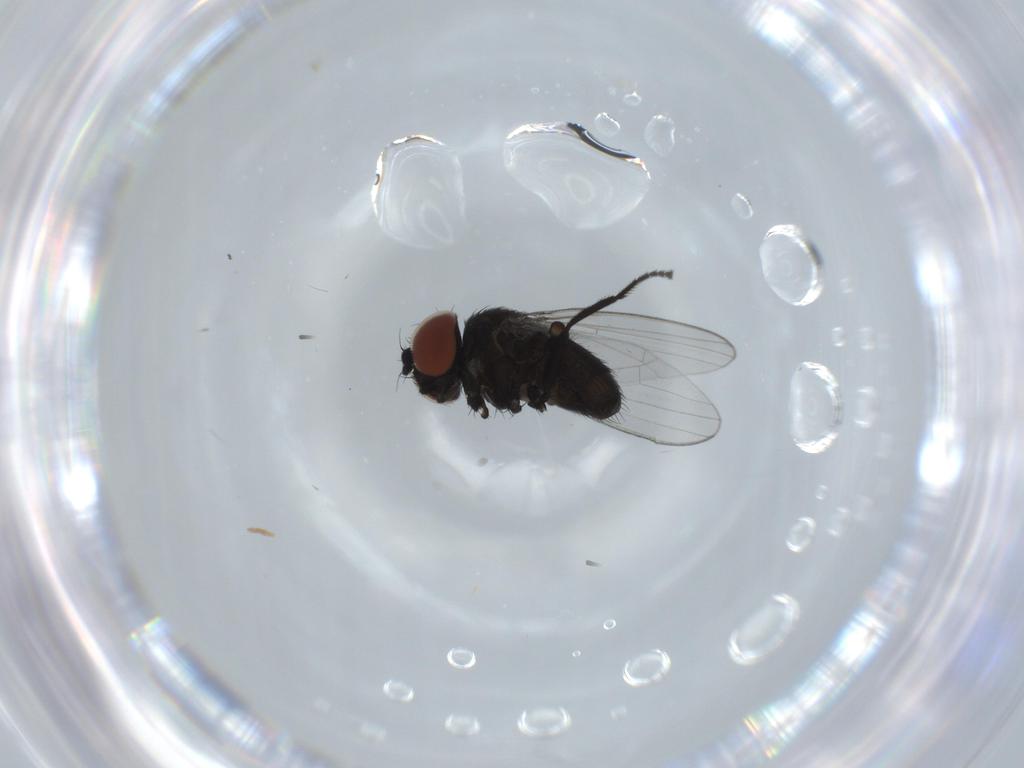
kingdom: Animalia
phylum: Arthropoda
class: Insecta
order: Diptera
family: Milichiidae
